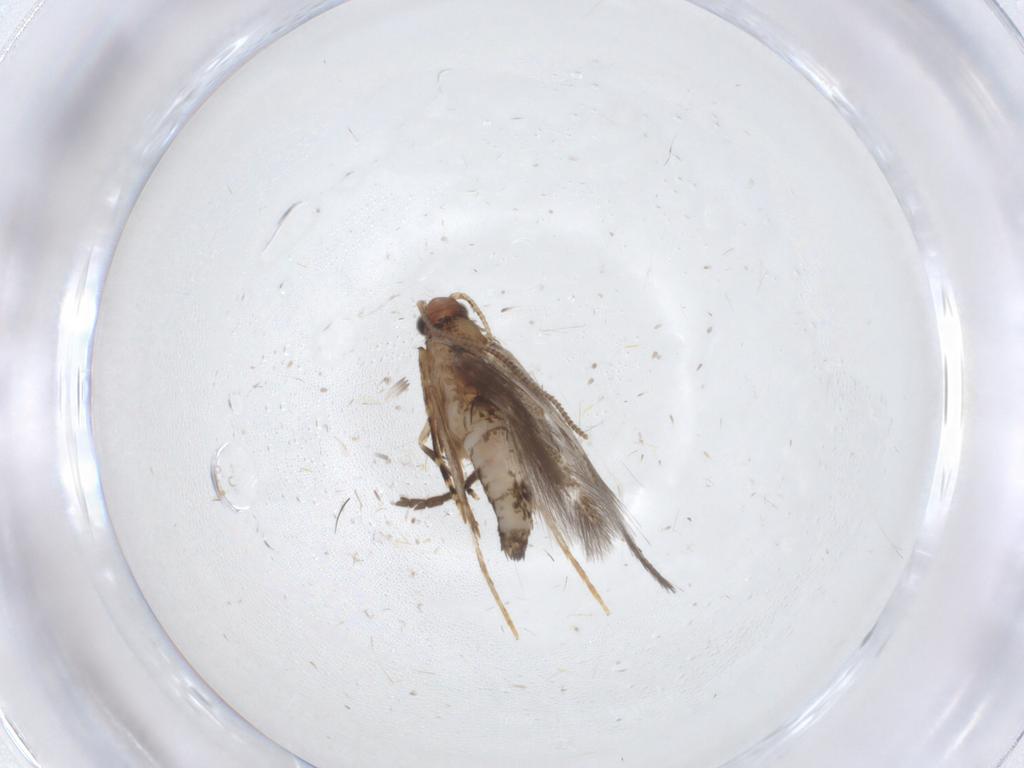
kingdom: Animalia
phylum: Arthropoda
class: Insecta
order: Lepidoptera
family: Tineidae
